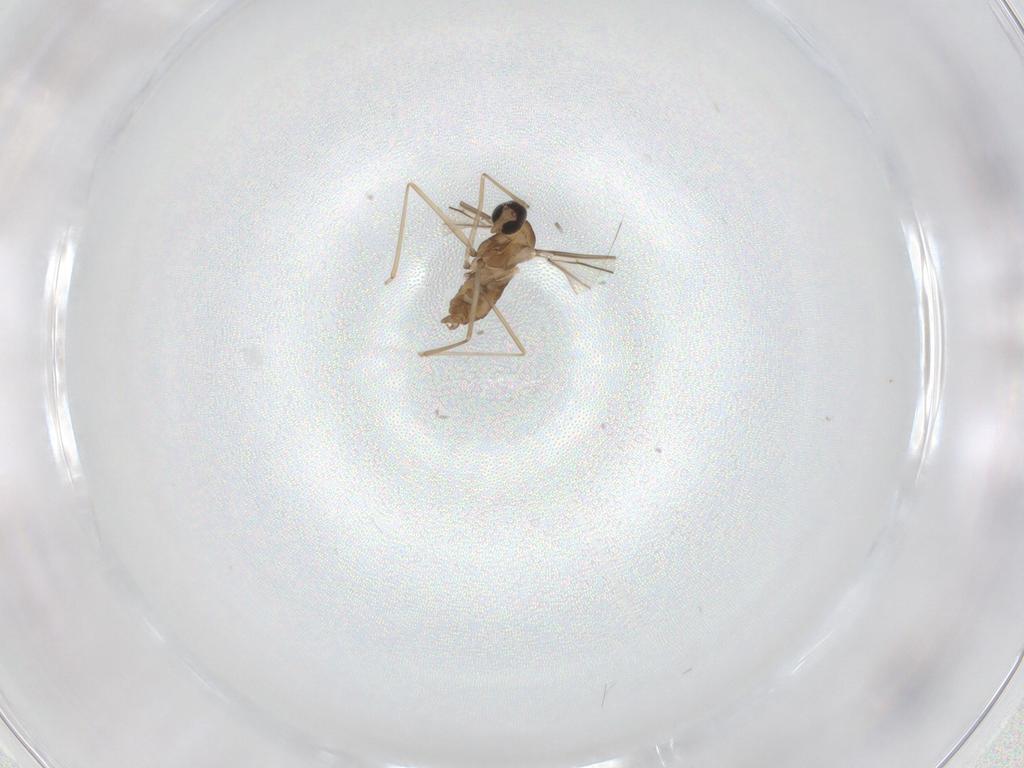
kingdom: Animalia
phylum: Arthropoda
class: Insecta
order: Diptera
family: Cecidomyiidae
